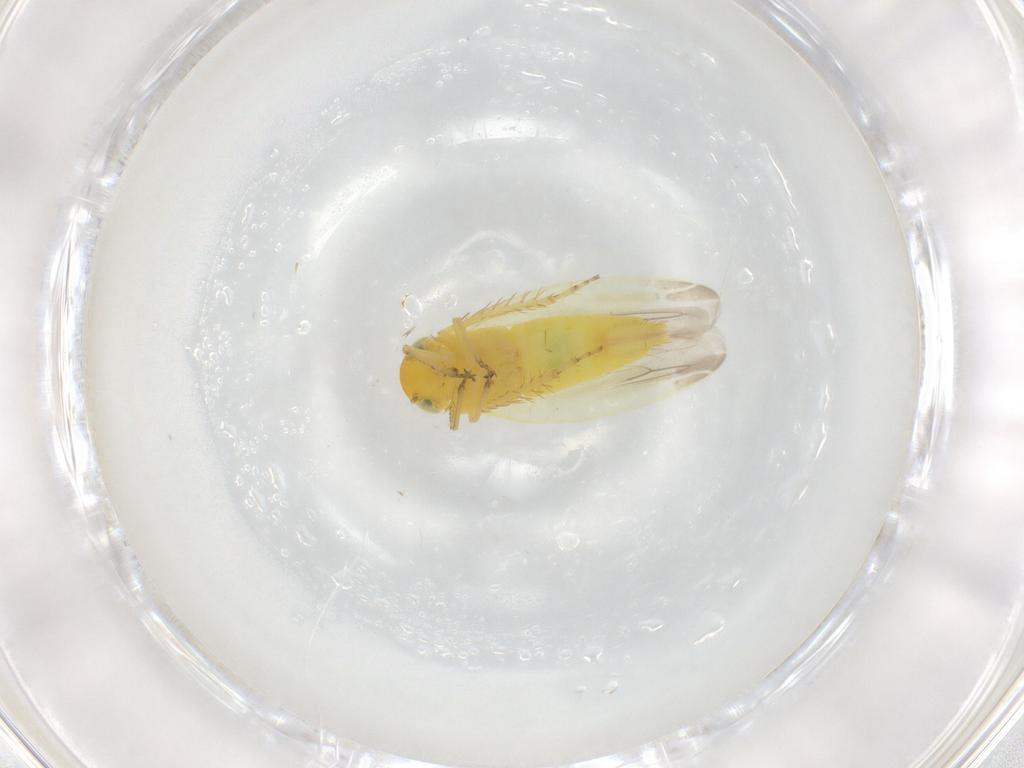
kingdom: Animalia
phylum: Arthropoda
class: Insecta
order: Hemiptera
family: Cicadellidae
